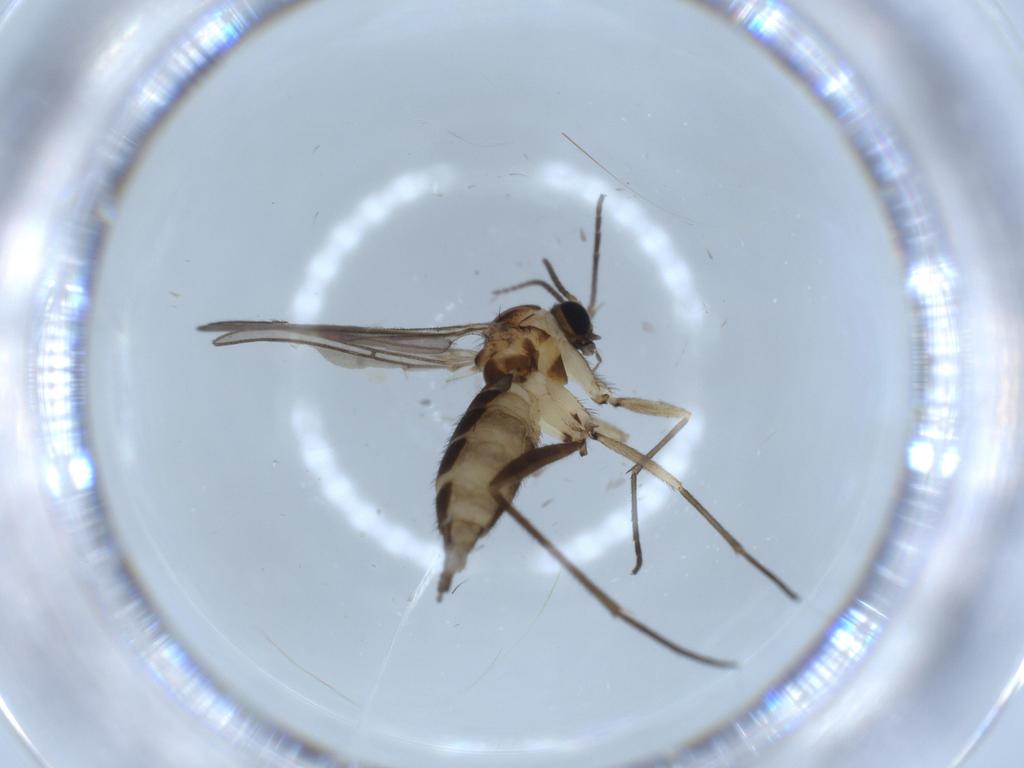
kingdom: Animalia
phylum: Arthropoda
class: Insecta
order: Diptera
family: Sciaridae
